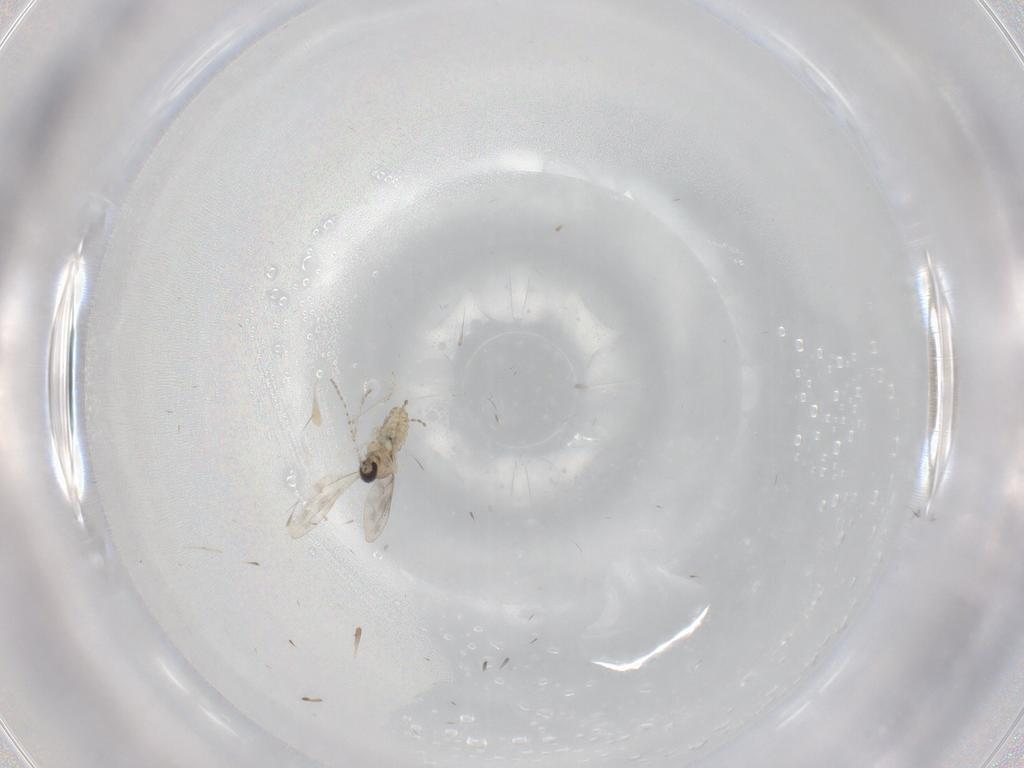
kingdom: Animalia
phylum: Arthropoda
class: Insecta
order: Diptera
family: Cecidomyiidae
